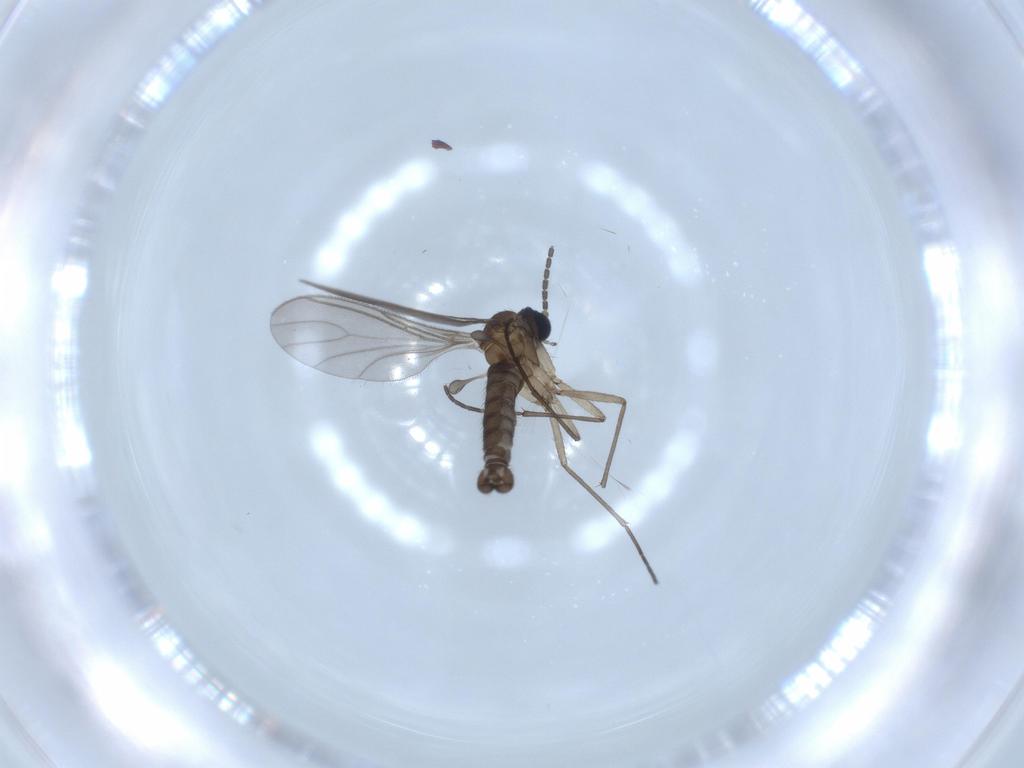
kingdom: Animalia
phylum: Arthropoda
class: Insecta
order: Diptera
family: Sciaridae
